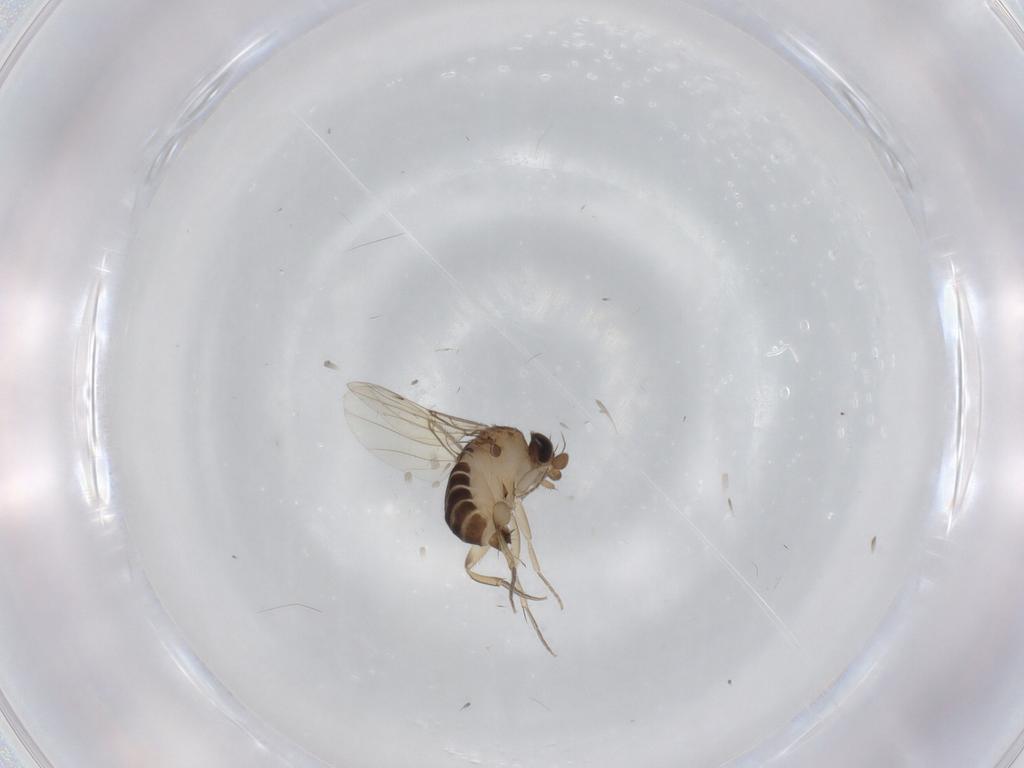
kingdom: Animalia
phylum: Arthropoda
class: Insecta
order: Diptera
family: Phoridae
